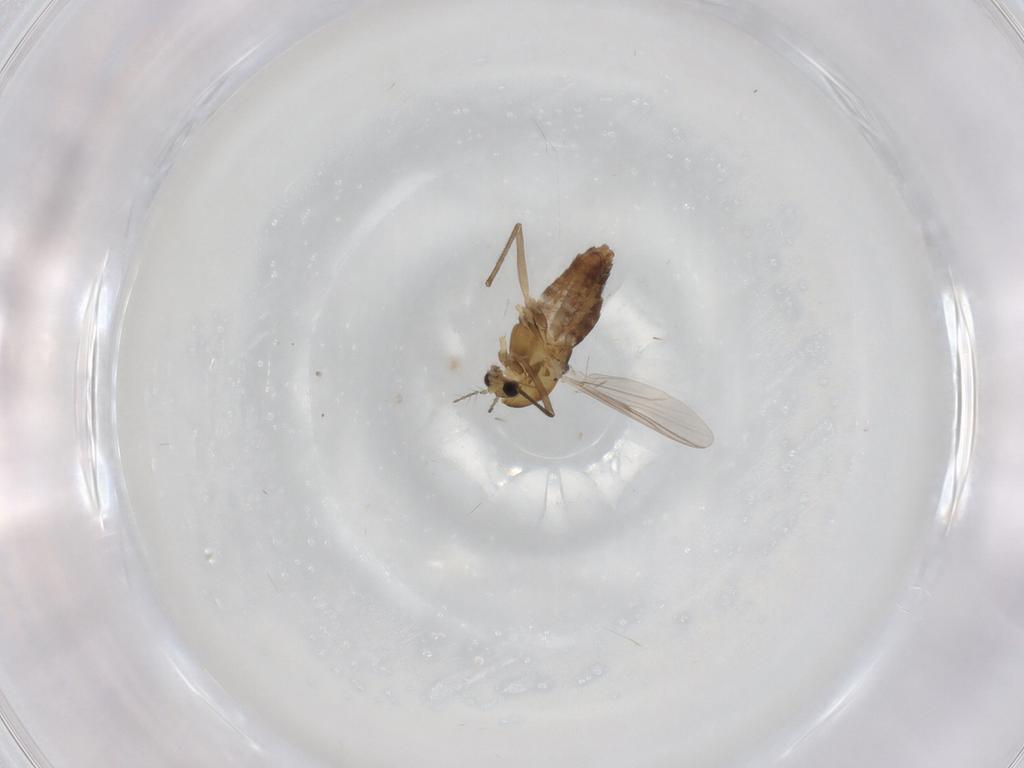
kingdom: Animalia
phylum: Arthropoda
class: Insecta
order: Diptera
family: Chironomidae
